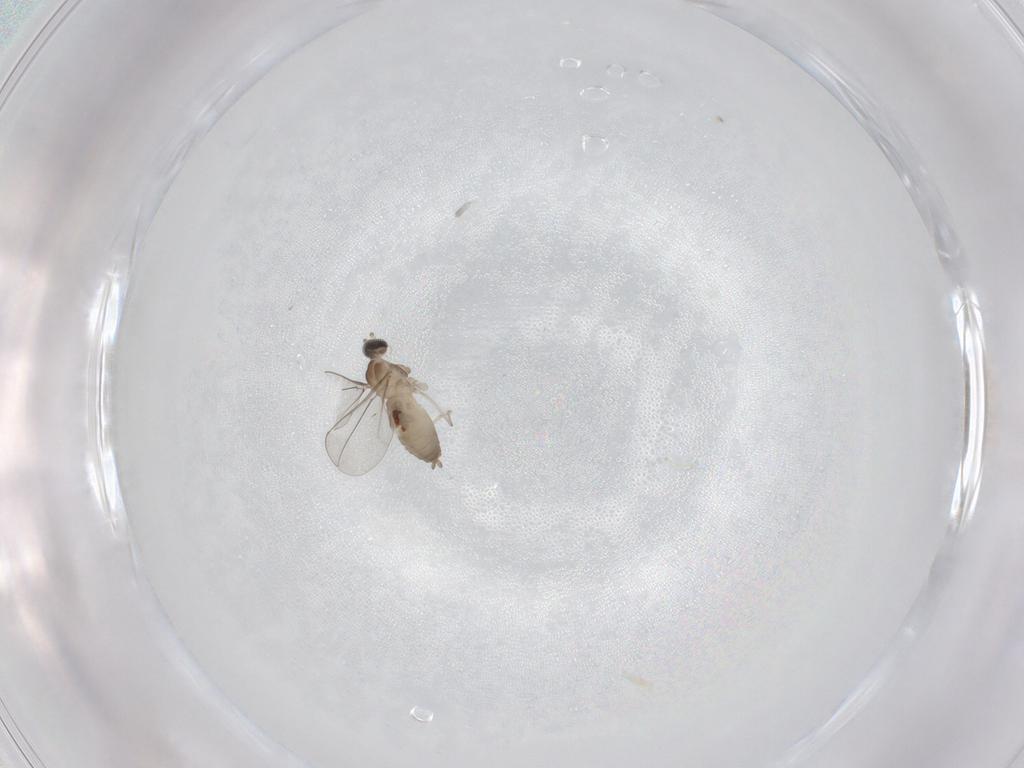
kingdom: Animalia
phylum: Arthropoda
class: Insecta
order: Diptera
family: Cecidomyiidae
